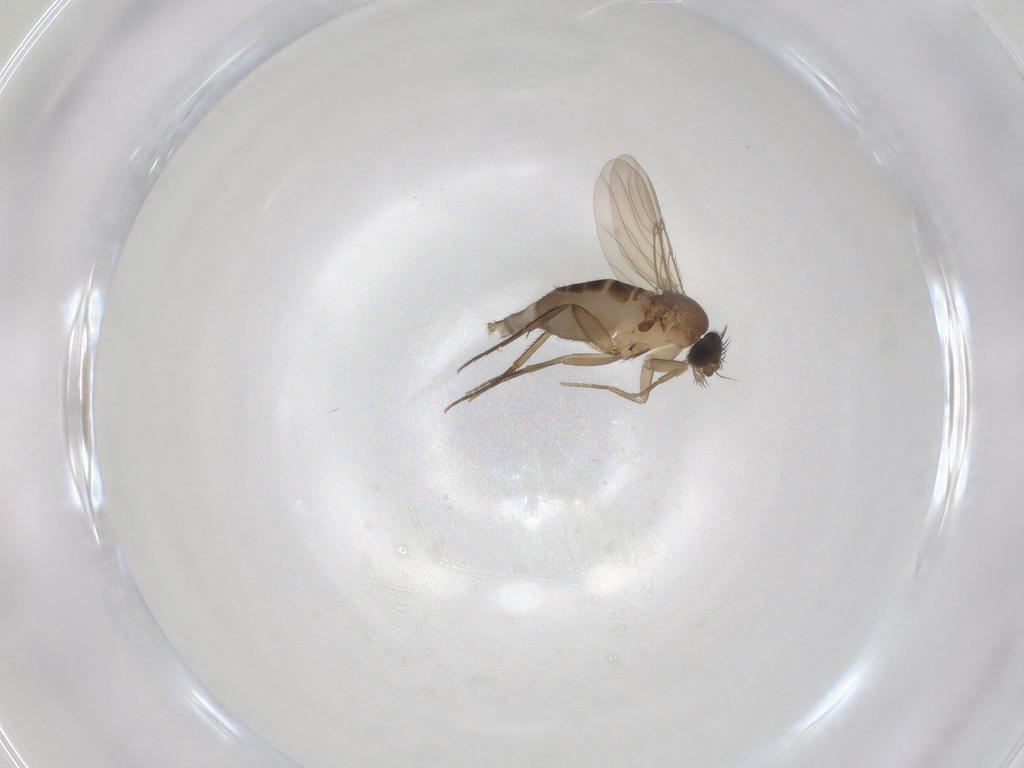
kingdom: Animalia
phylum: Arthropoda
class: Insecta
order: Diptera
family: Phoridae
